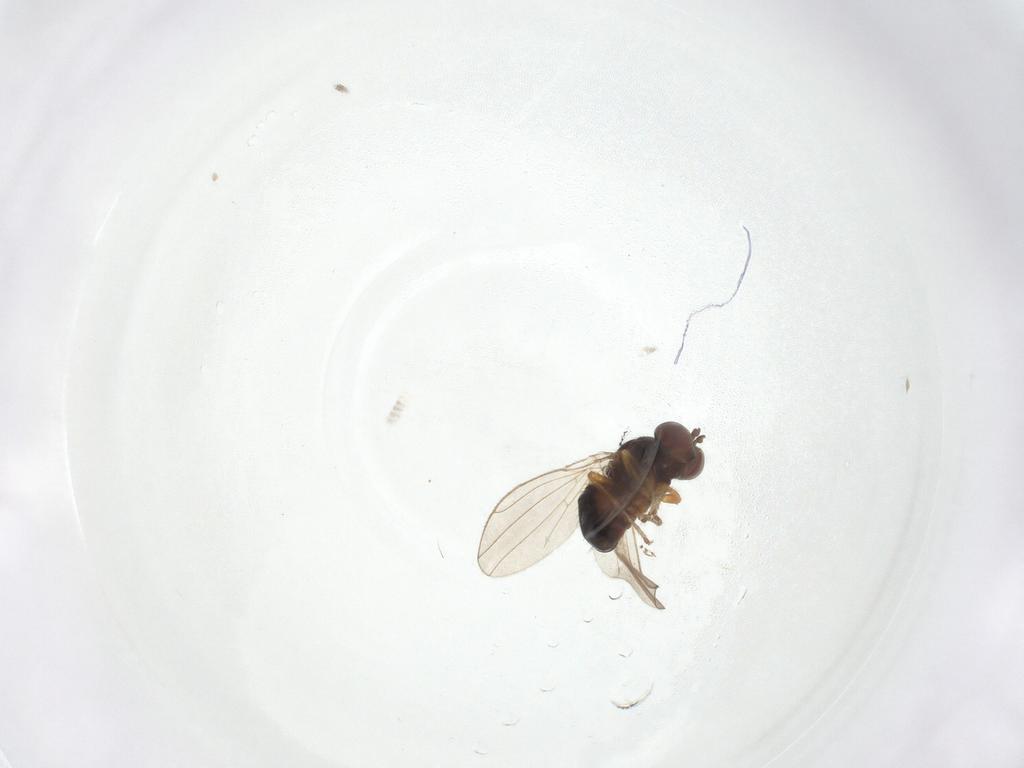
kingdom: Animalia
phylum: Arthropoda
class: Insecta
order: Diptera
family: Ephydridae
